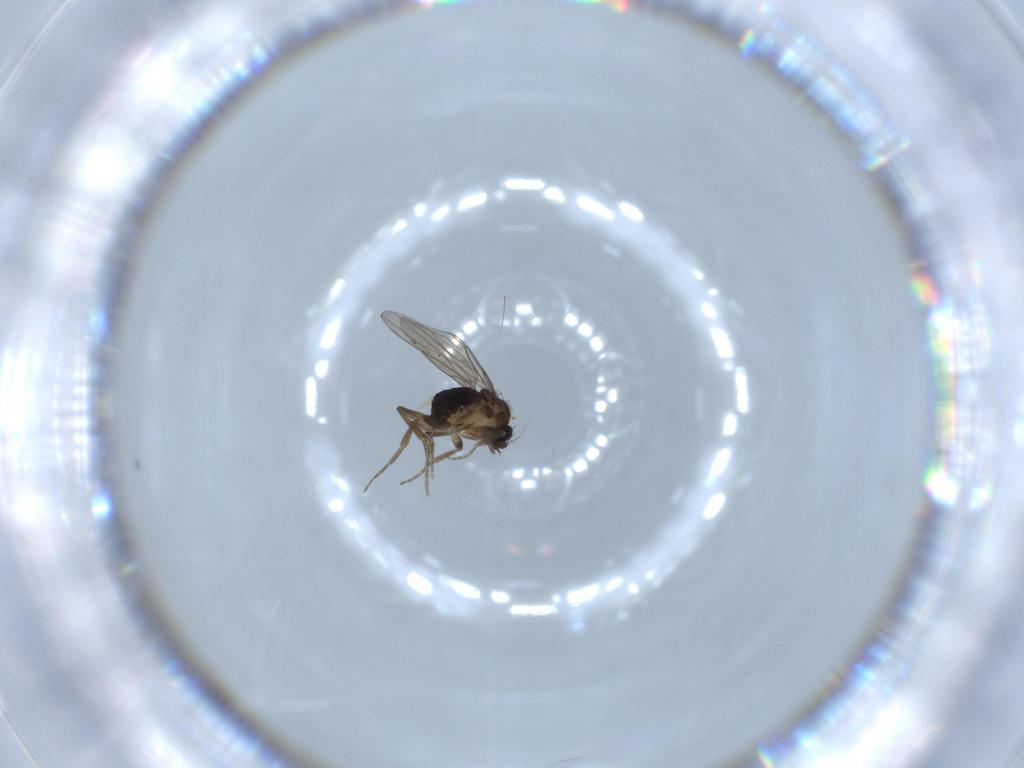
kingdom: Animalia
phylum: Arthropoda
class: Insecta
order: Diptera
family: Phoridae
